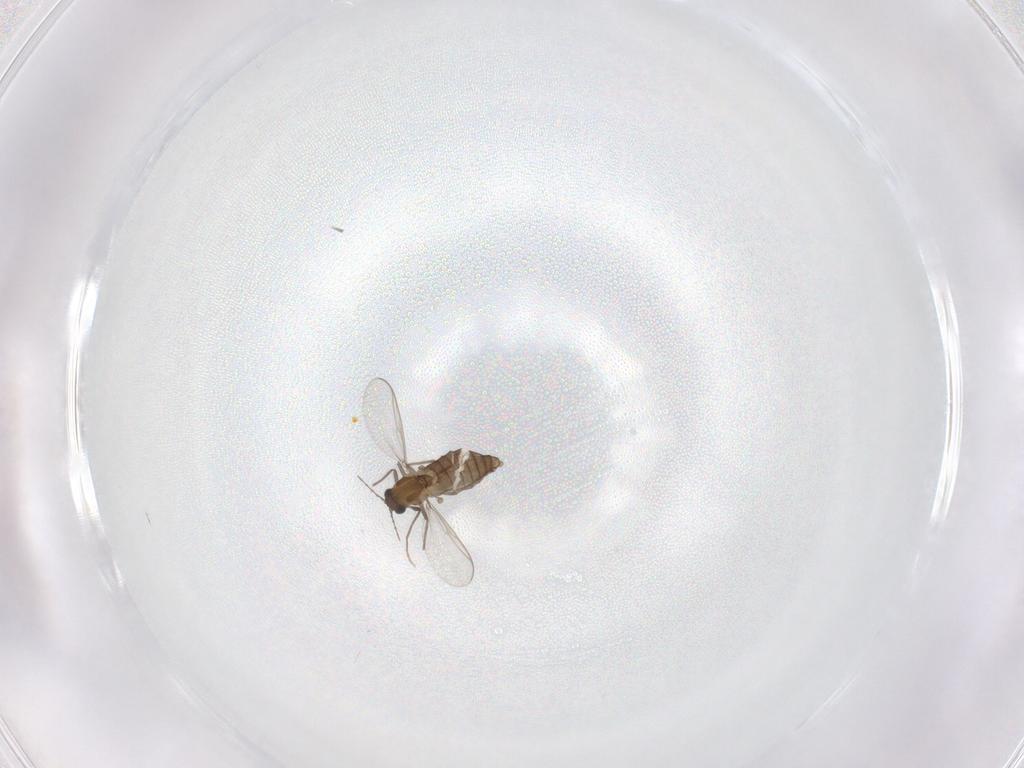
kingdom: Animalia
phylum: Arthropoda
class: Insecta
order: Diptera
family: Chironomidae
